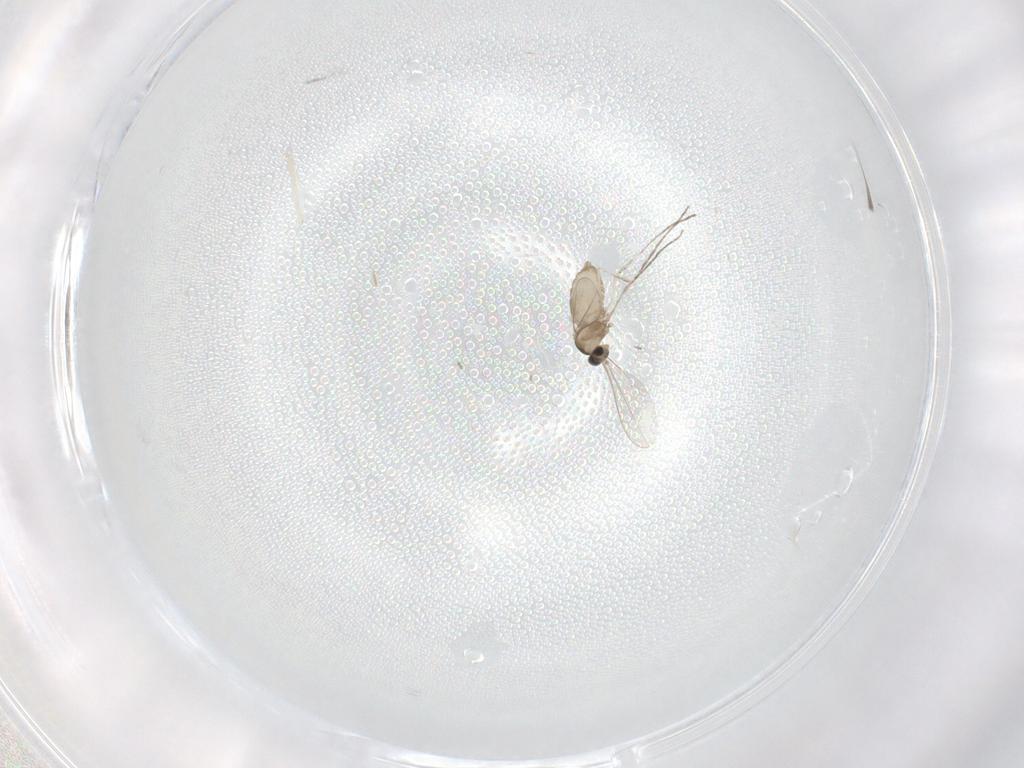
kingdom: Animalia
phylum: Arthropoda
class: Insecta
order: Diptera
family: Cecidomyiidae
